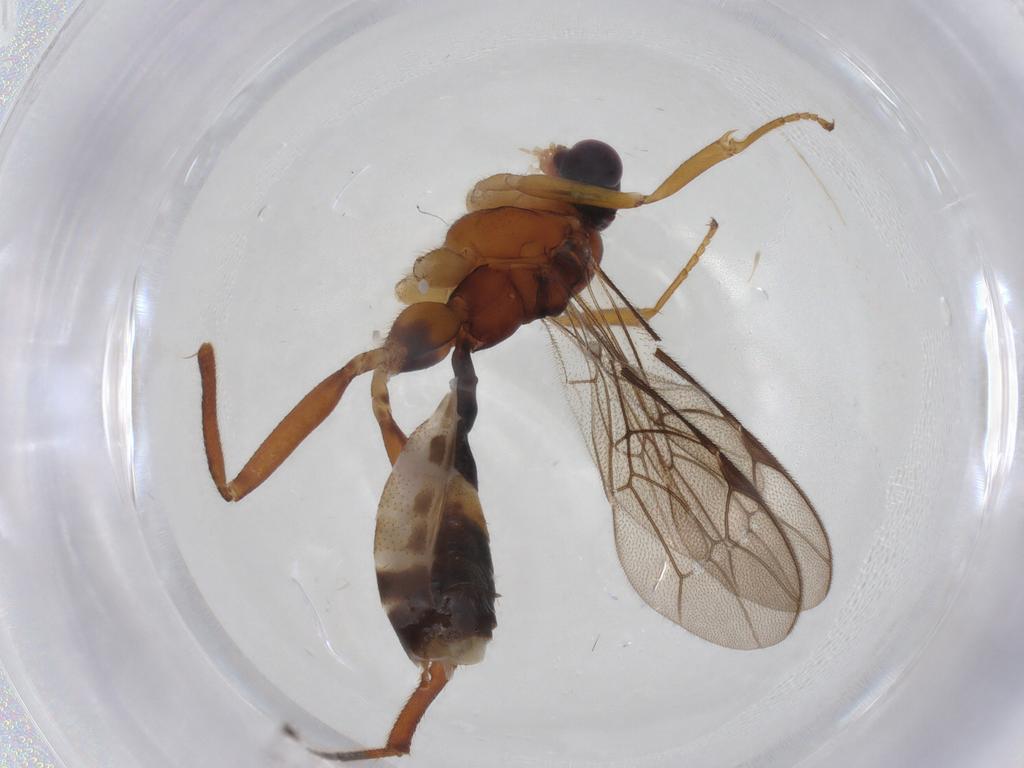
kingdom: Animalia
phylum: Arthropoda
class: Insecta
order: Hymenoptera
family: Ichneumonidae
